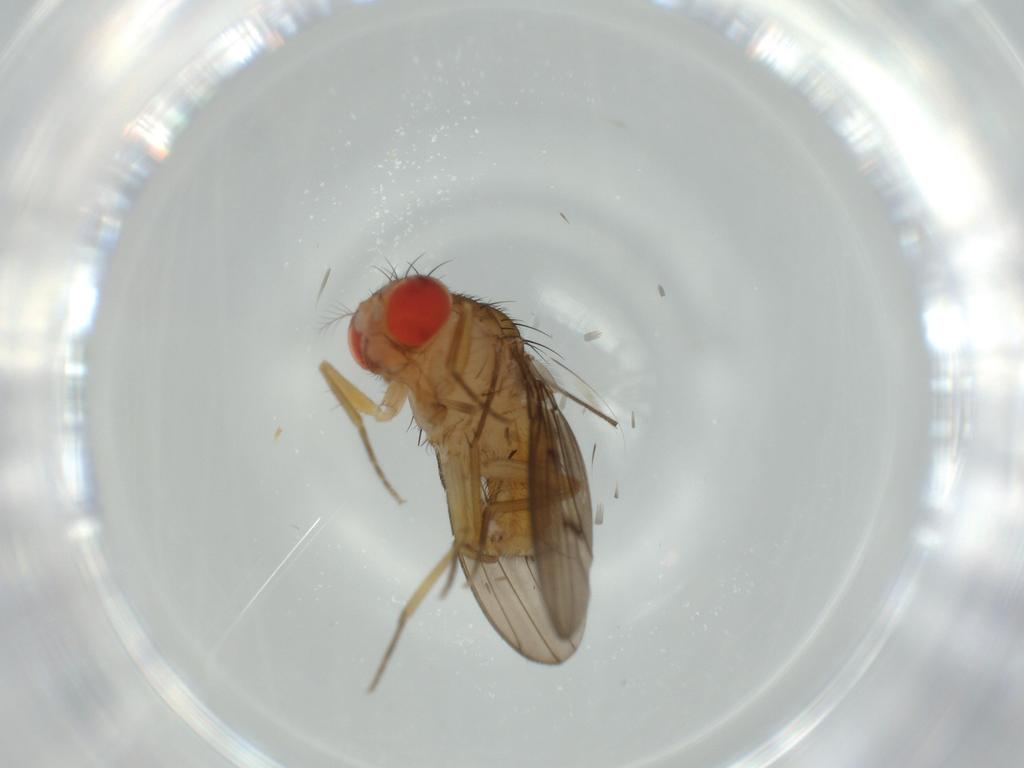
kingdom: Animalia
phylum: Arthropoda
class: Insecta
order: Diptera
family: Drosophilidae
